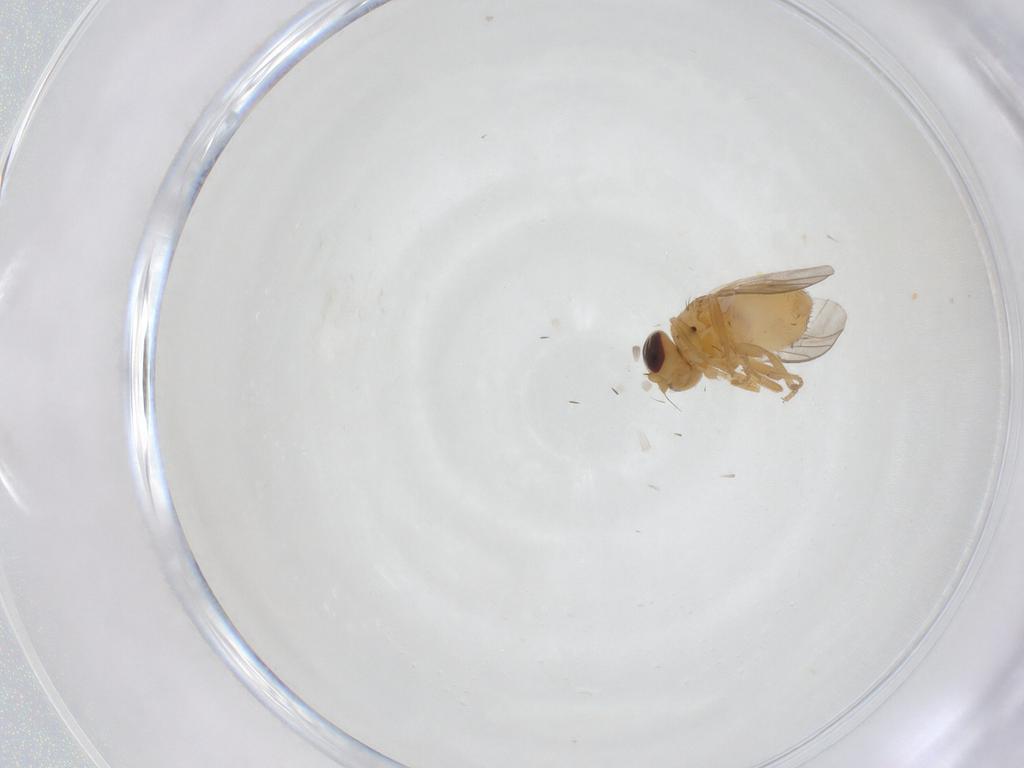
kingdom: Animalia
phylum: Arthropoda
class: Insecta
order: Diptera
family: Chloropidae
